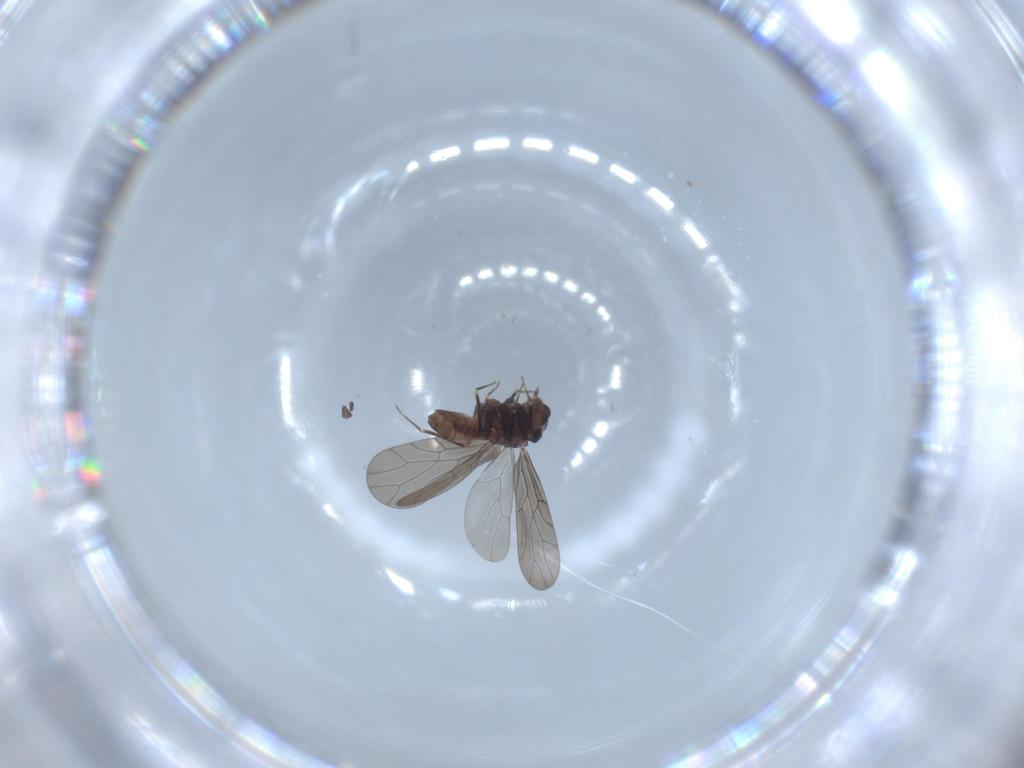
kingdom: Animalia
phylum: Arthropoda
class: Insecta
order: Psocodea
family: Lepidopsocidae
